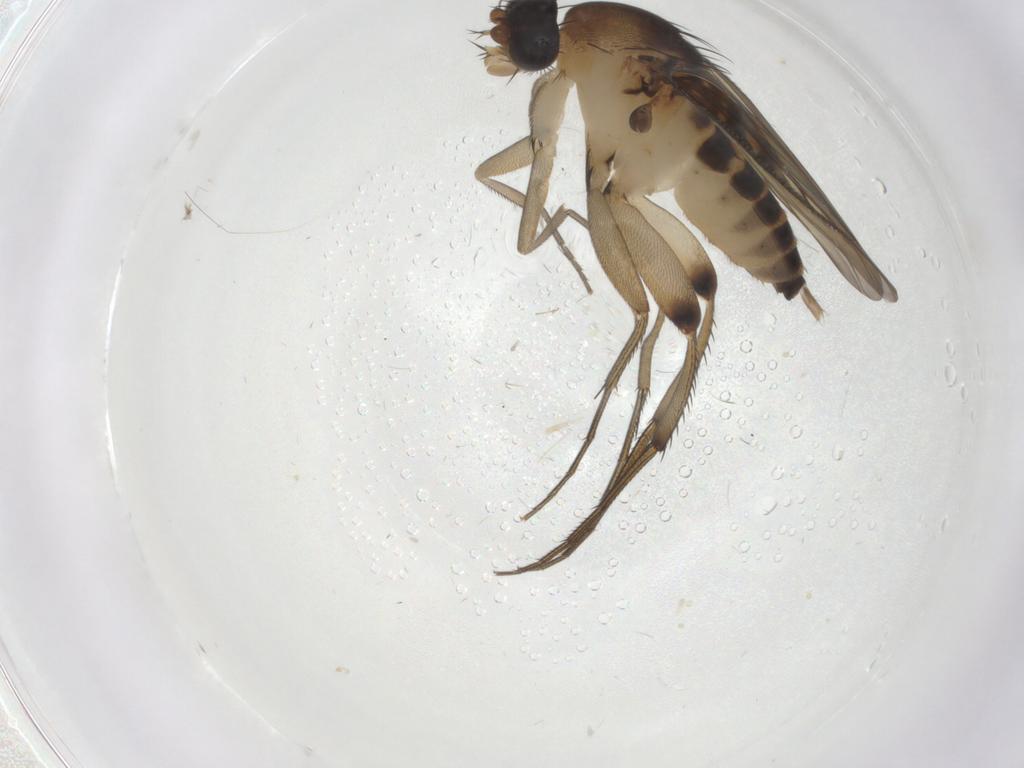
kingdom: Animalia
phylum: Arthropoda
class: Insecta
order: Diptera
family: Phoridae
